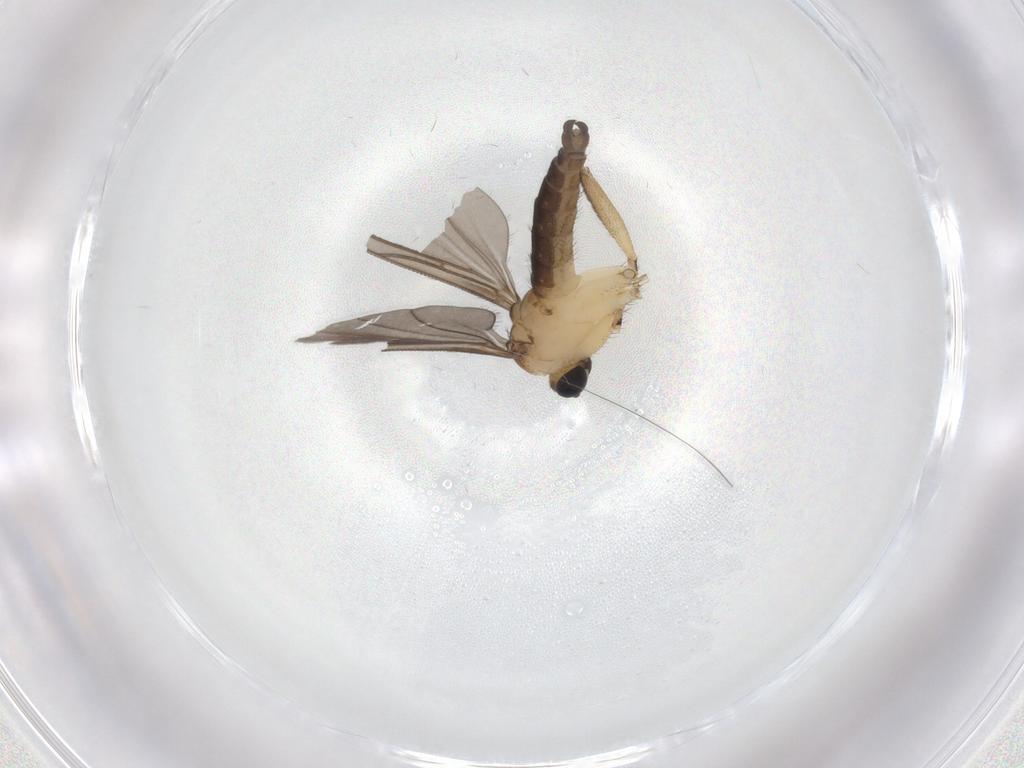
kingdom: Animalia
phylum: Arthropoda
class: Insecta
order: Diptera
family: Sciaridae
